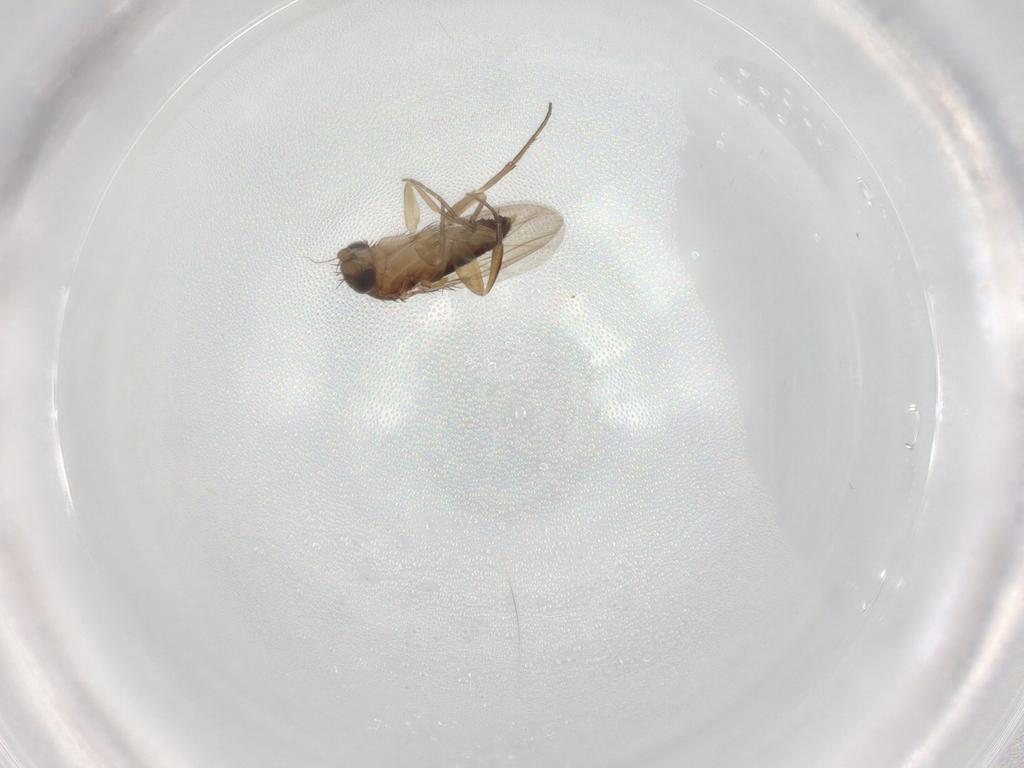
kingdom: Animalia
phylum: Arthropoda
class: Insecta
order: Diptera
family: Phoridae
